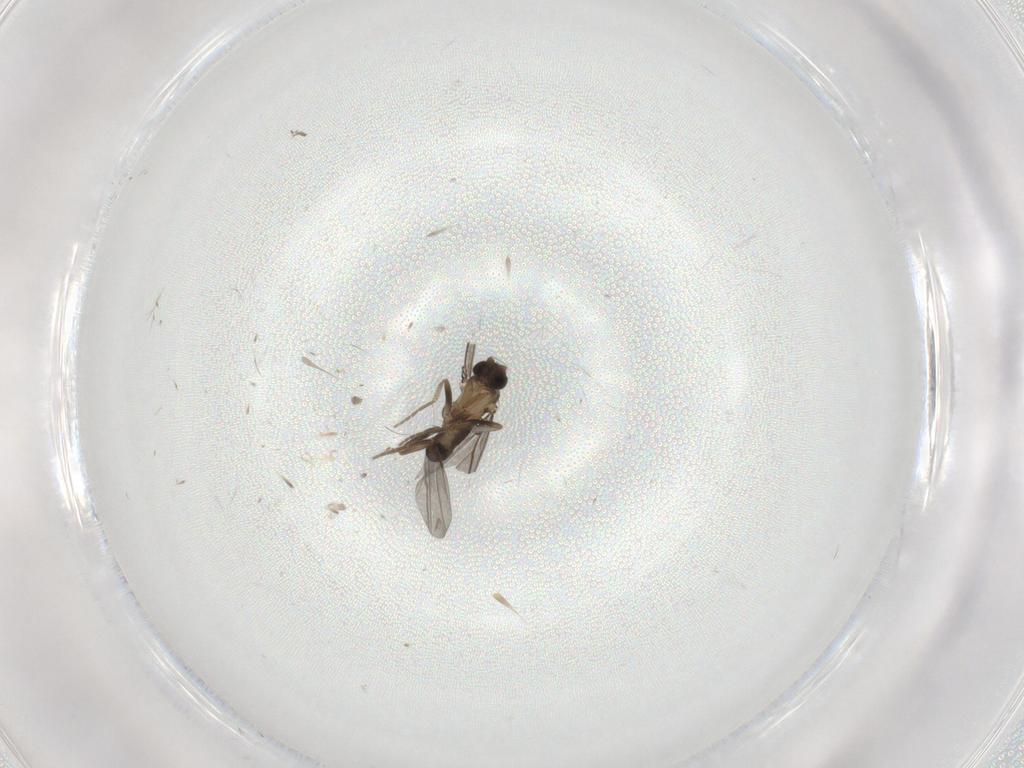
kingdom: Animalia
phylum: Arthropoda
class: Insecta
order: Diptera
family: Phoridae
